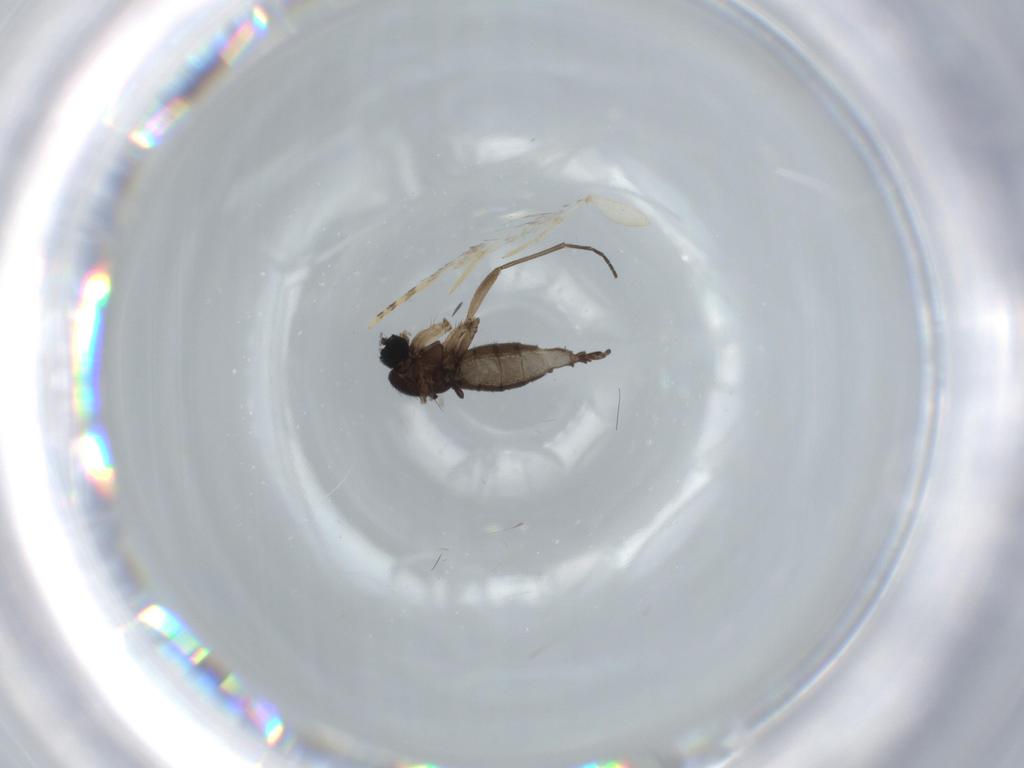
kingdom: Animalia
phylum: Arthropoda
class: Insecta
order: Diptera
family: Sciaridae
